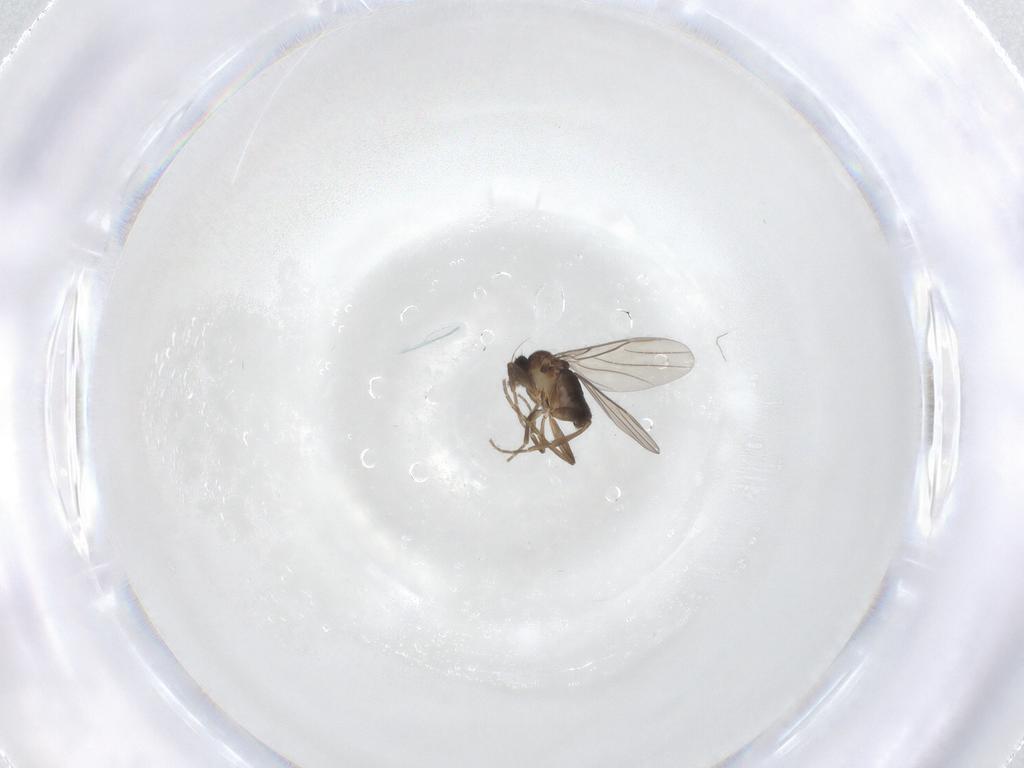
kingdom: Animalia
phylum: Arthropoda
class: Insecta
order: Diptera
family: Phoridae
